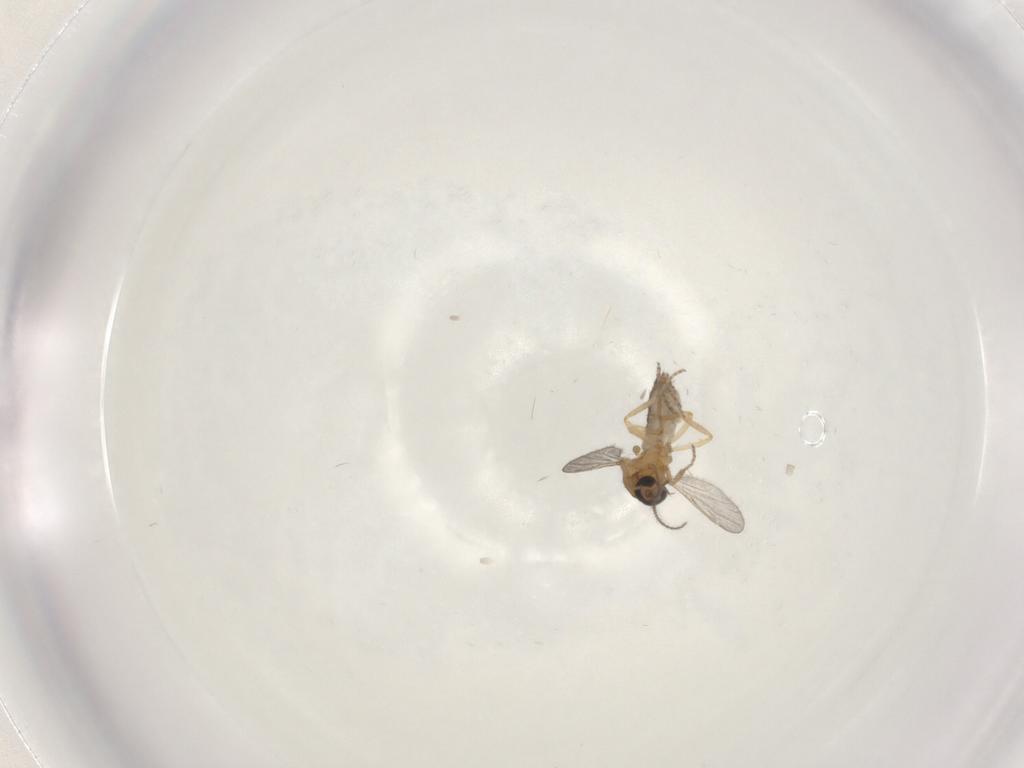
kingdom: Animalia
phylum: Arthropoda
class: Insecta
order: Diptera
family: Ceratopogonidae
